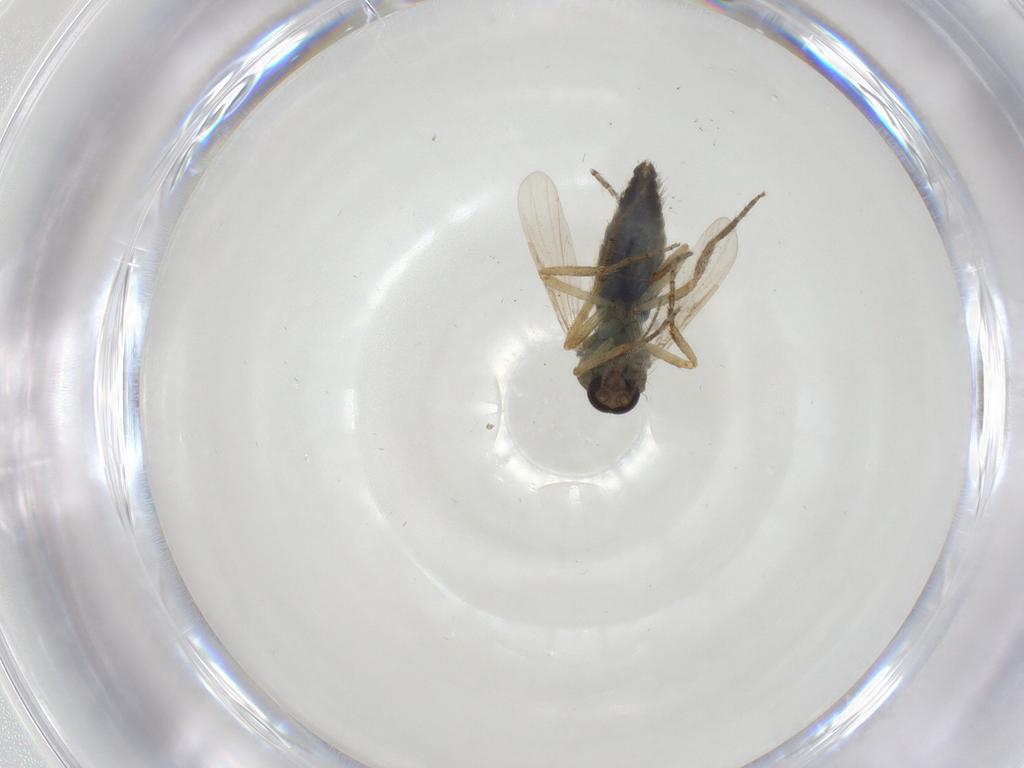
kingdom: Animalia
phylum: Arthropoda
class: Insecta
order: Diptera
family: Ceratopogonidae
